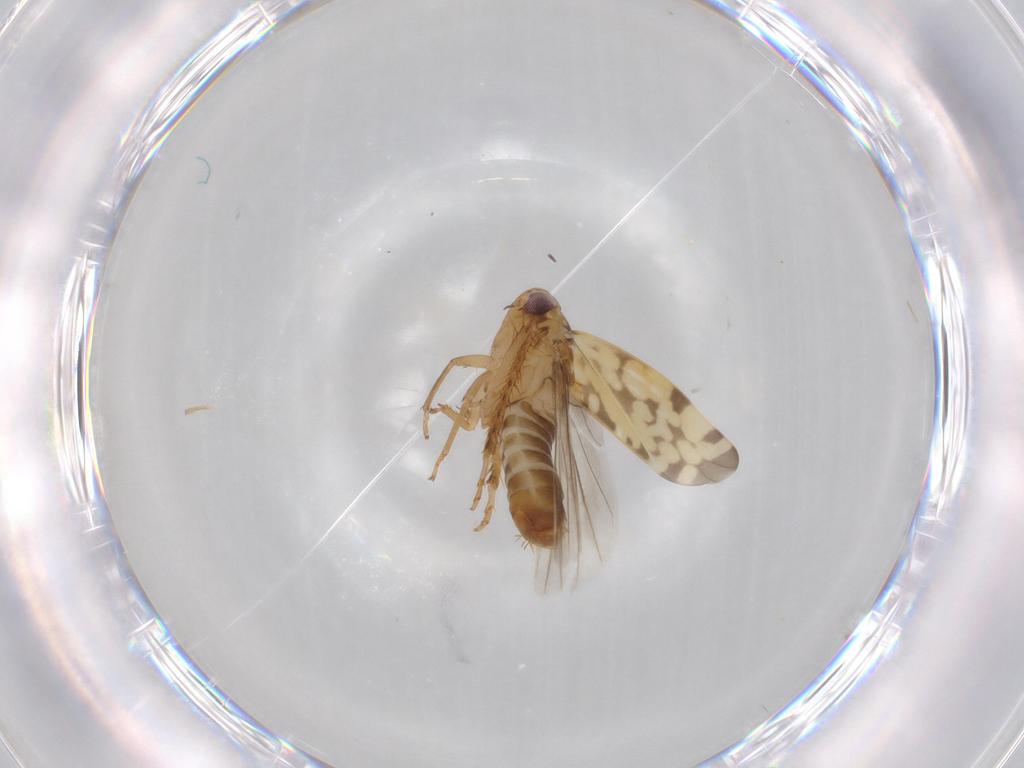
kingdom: Animalia
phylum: Arthropoda
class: Insecta
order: Hemiptera
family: Cicadellidae
